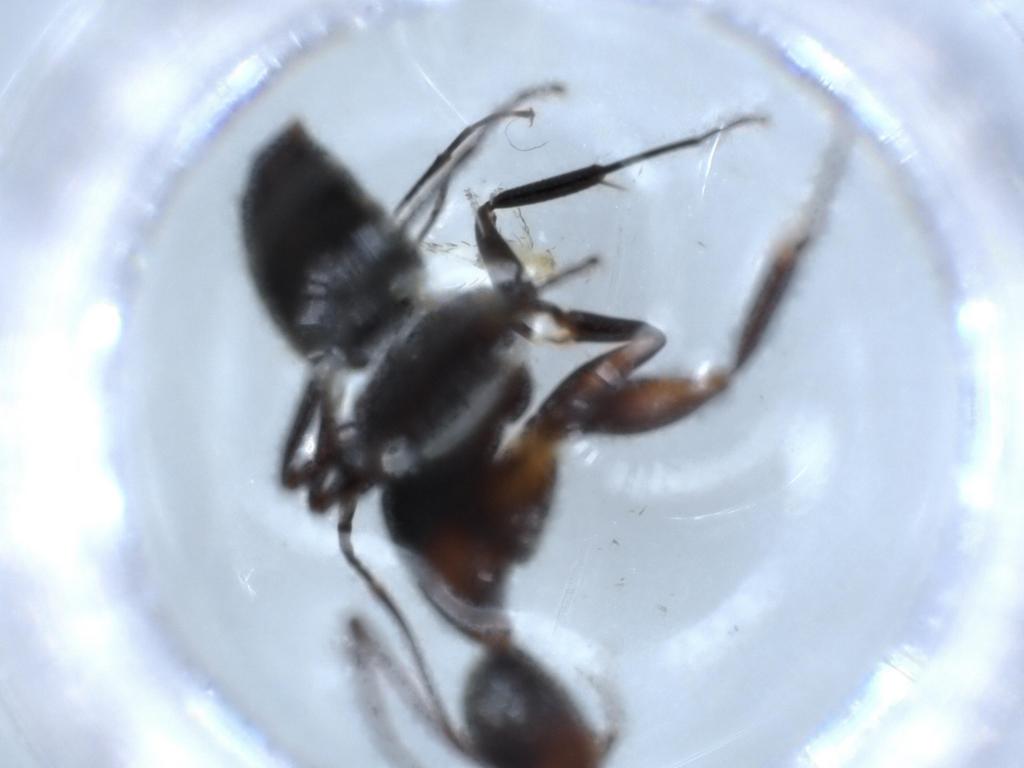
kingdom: Animalia
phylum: Arthropoda
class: Insecta
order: Hymenoptera
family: Formicidae
